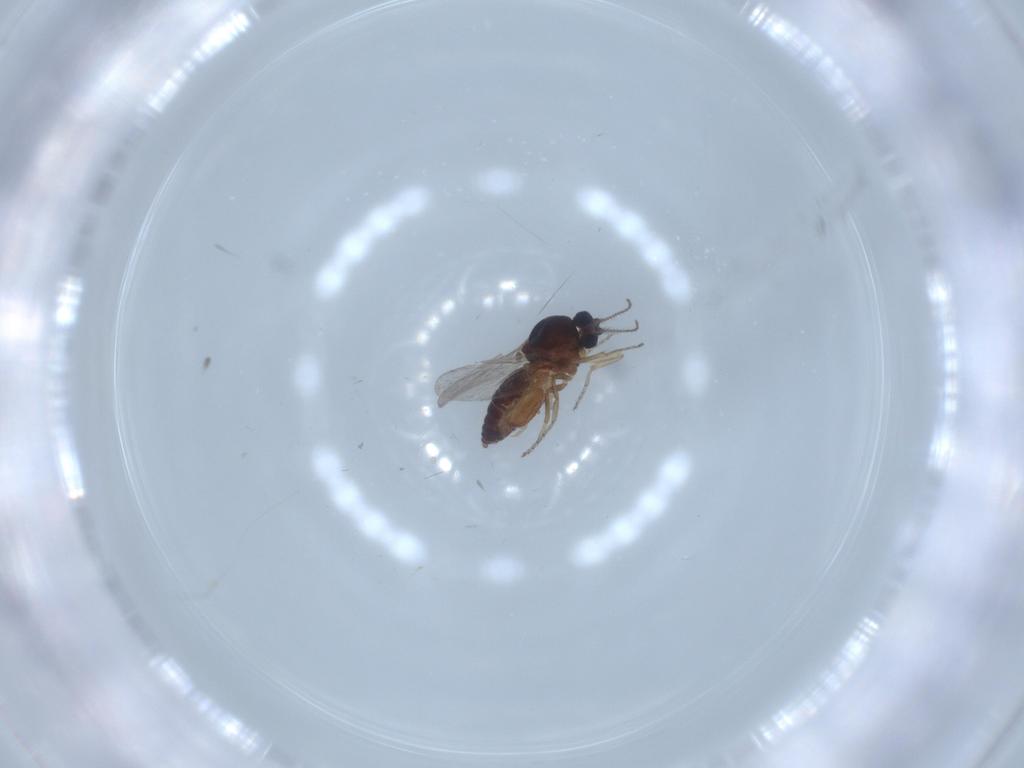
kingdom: Animalia
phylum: Arthropoda
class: Insecta
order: Diptera
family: Ceratopogonidae
